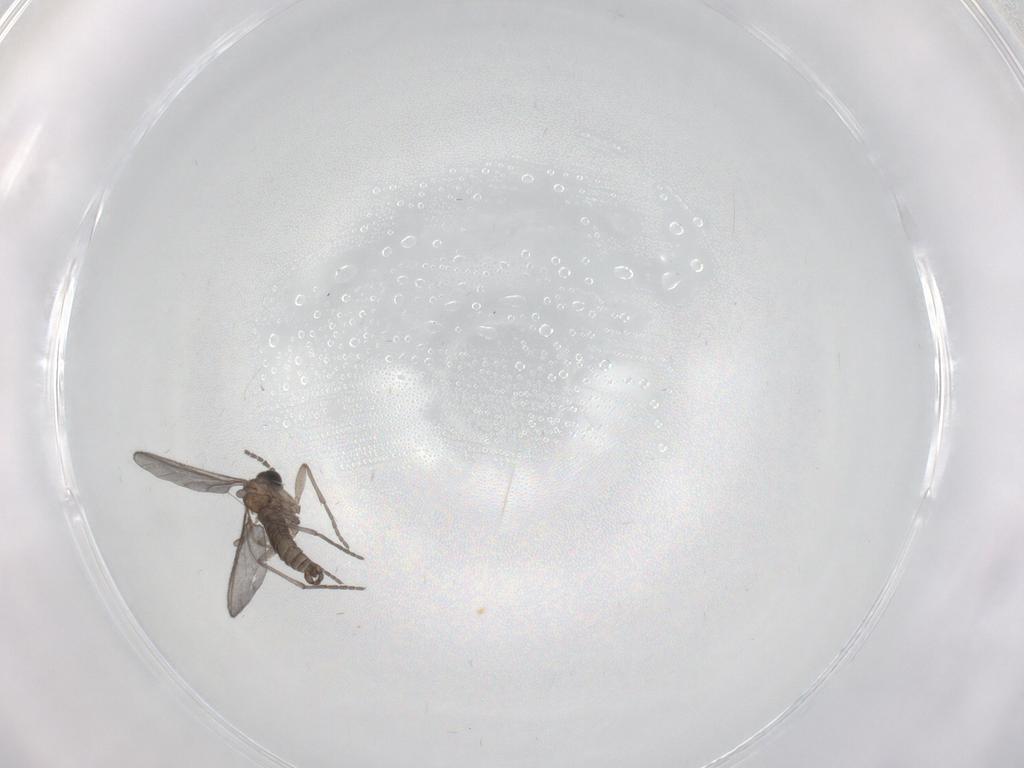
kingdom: Animalia
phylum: Arthropoda
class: Insecta
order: Diptera
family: Sciaridae
